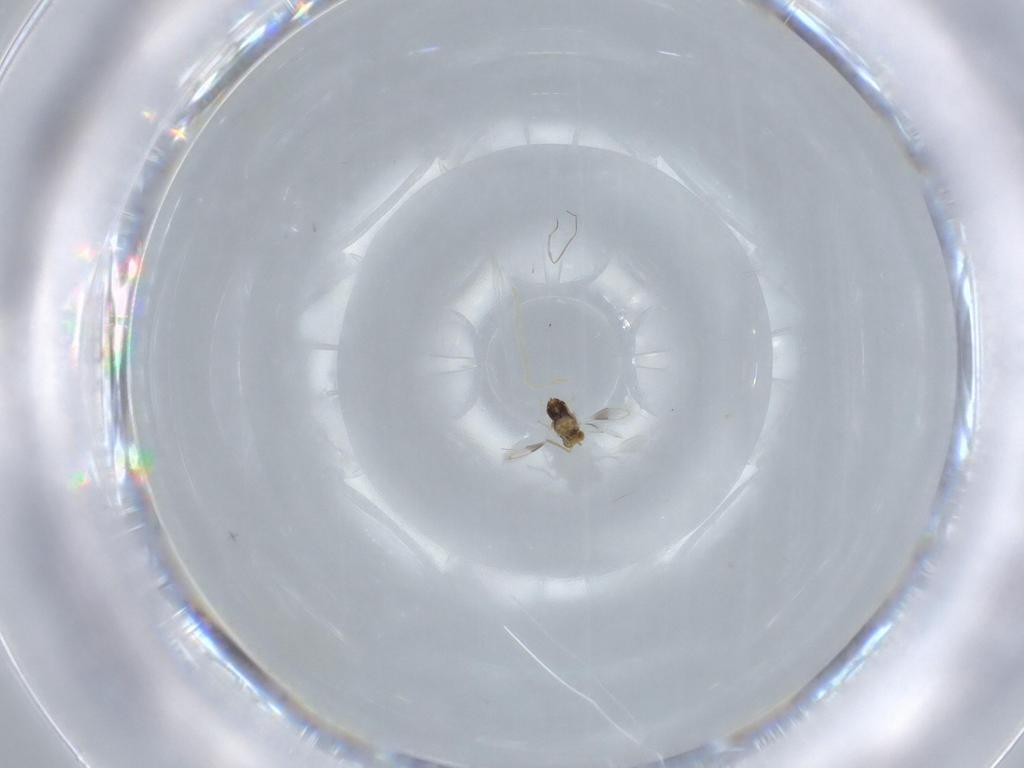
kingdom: Animalia
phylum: Arthropoda
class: Insecta
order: Hymenoptera
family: Aphelinidae
